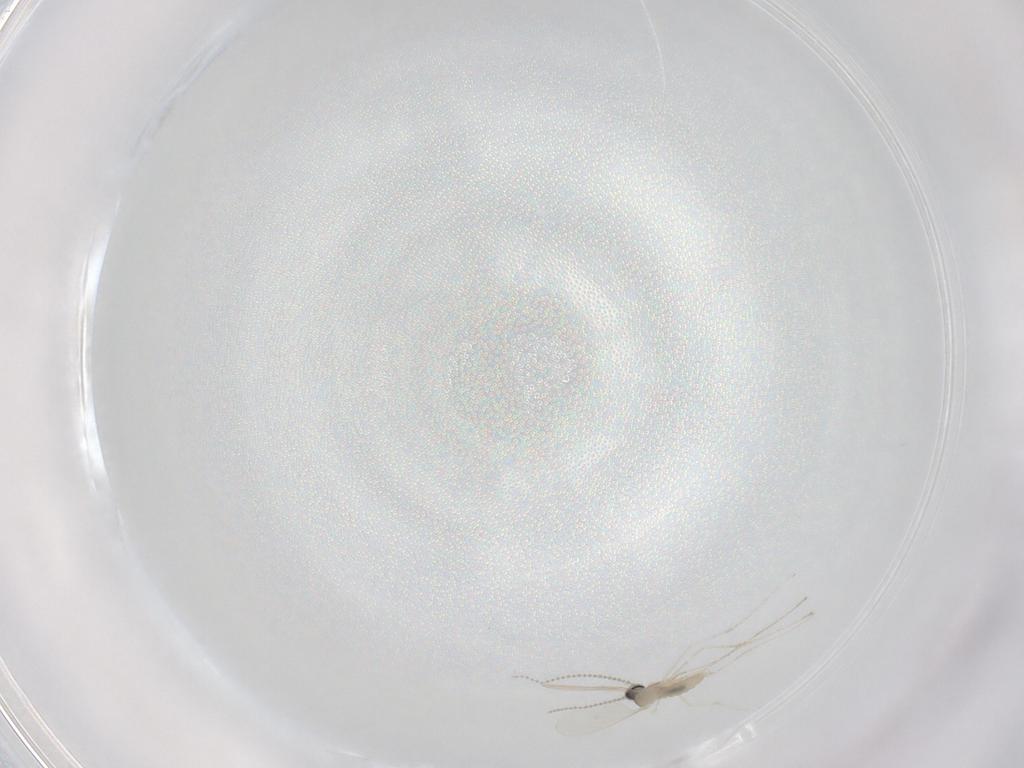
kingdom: Animalia
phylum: Arthropoda
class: Insecta
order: Diptera
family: Cecidomyiidae
